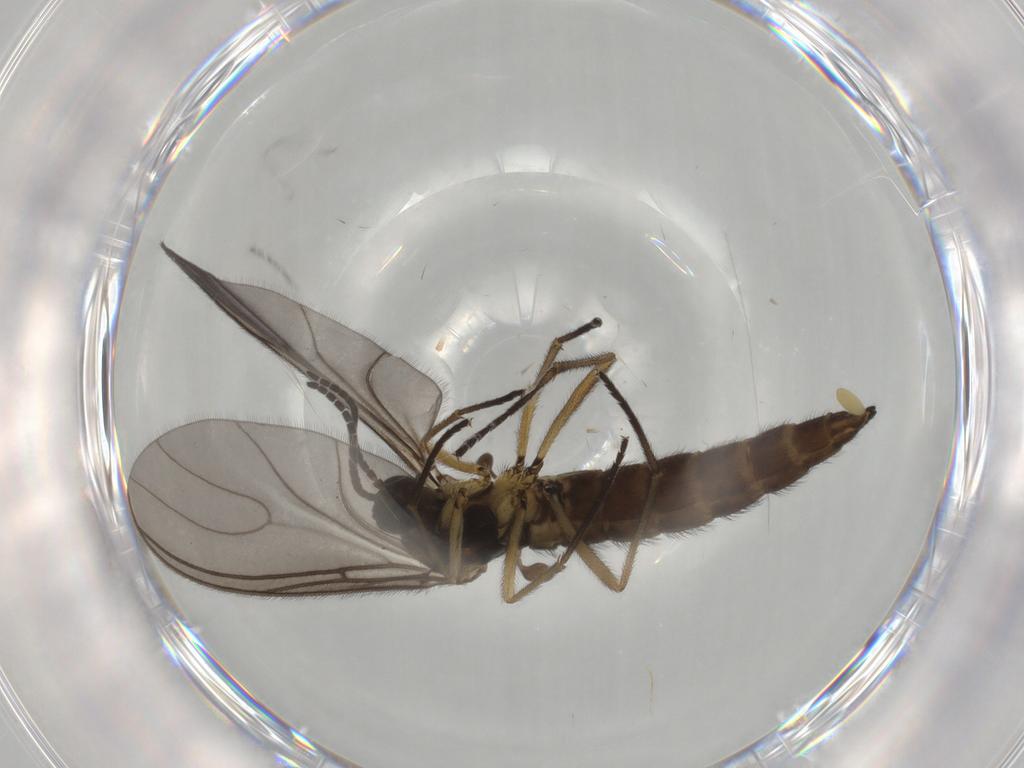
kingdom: Animalia
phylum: Arthropoda
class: Insecta
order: Diptera
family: Sciaridae
